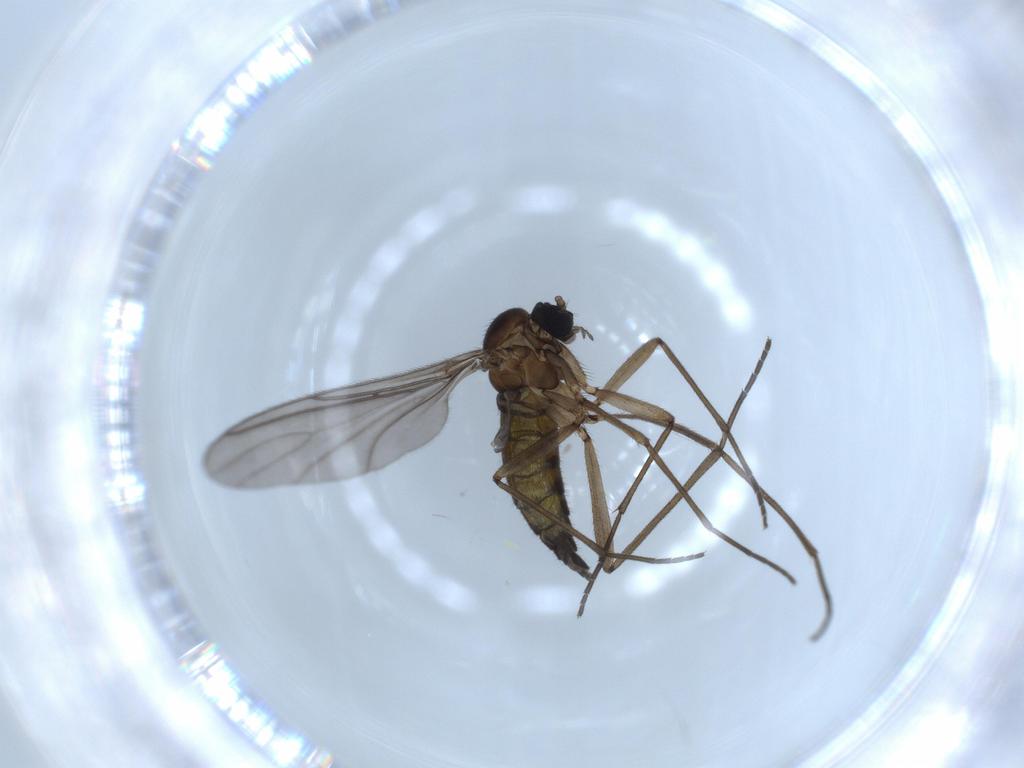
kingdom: Animalia
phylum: Arthropoda
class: Insecta
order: Diptera
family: Sciaridae
